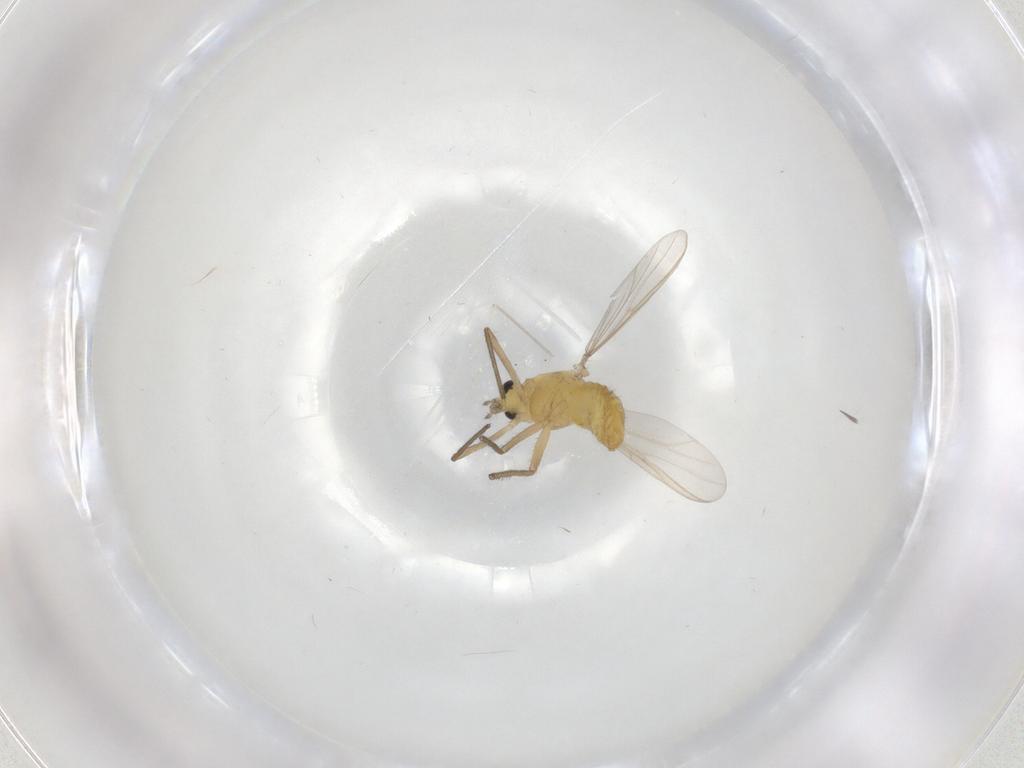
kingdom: Animalia
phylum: Arthropoda
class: Insecta
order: Diptera
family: Chironomidae
